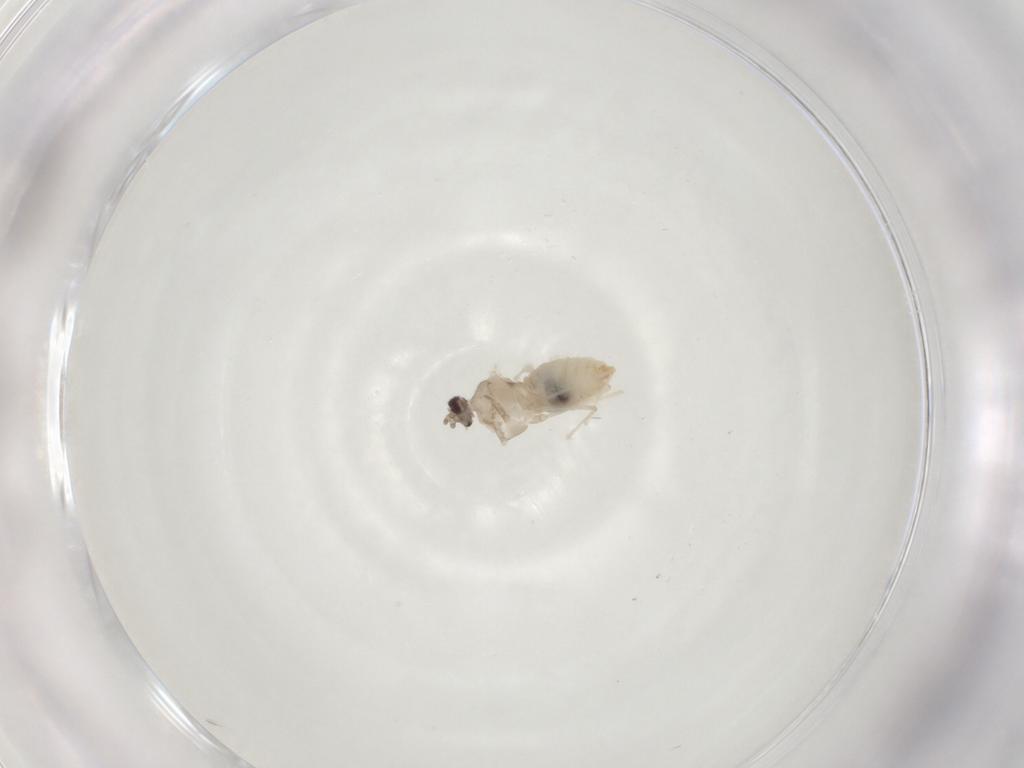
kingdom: Animalia
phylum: Arthropoda
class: Insecta
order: Diptera
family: Cecidomyiidae
